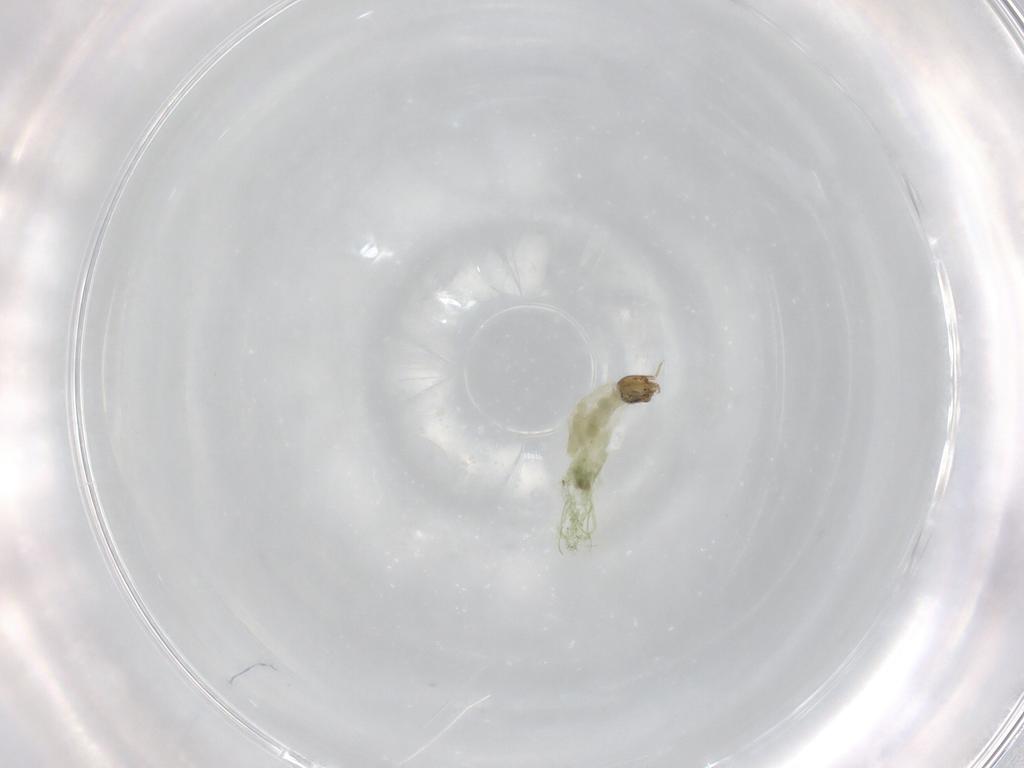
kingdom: Animalia
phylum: Arthropoda
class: Insecta
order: Diptera
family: Chironomidae
